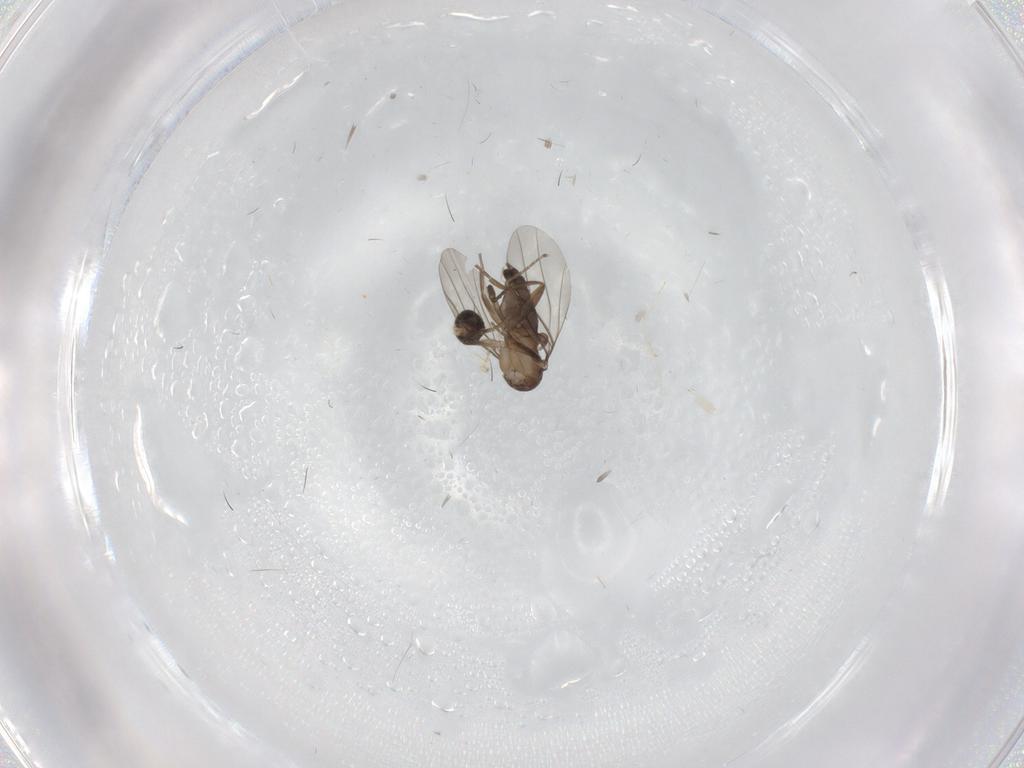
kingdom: Animalia
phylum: Arthropoda
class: Insecta
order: Diptera
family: Phoridae
